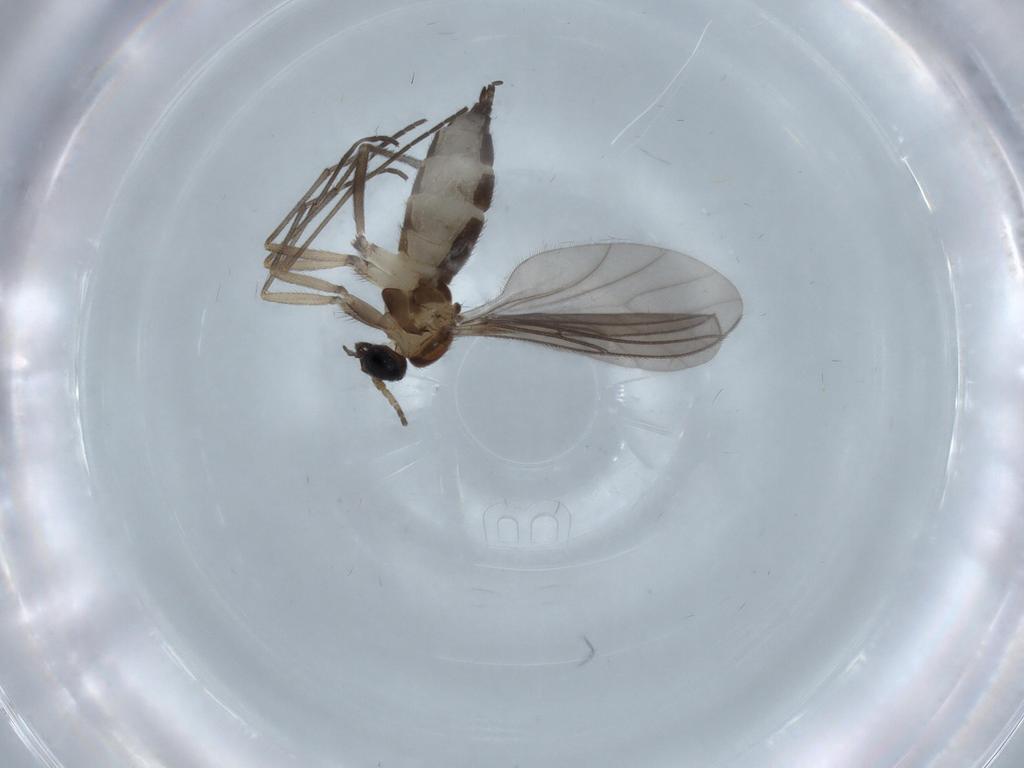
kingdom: Animalia
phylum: Arthropoda
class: Insecta
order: Diptera
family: Sciaridae
